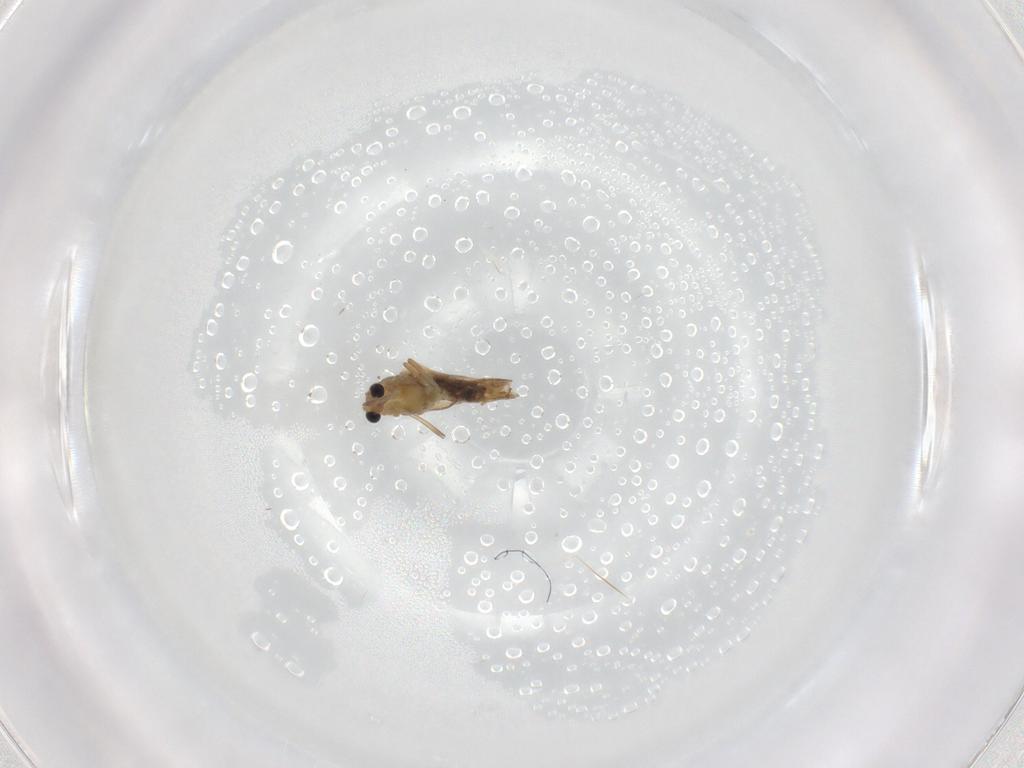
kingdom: Animalia
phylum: Arthropoda
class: Insecta
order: Diptera
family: Chironomidae
